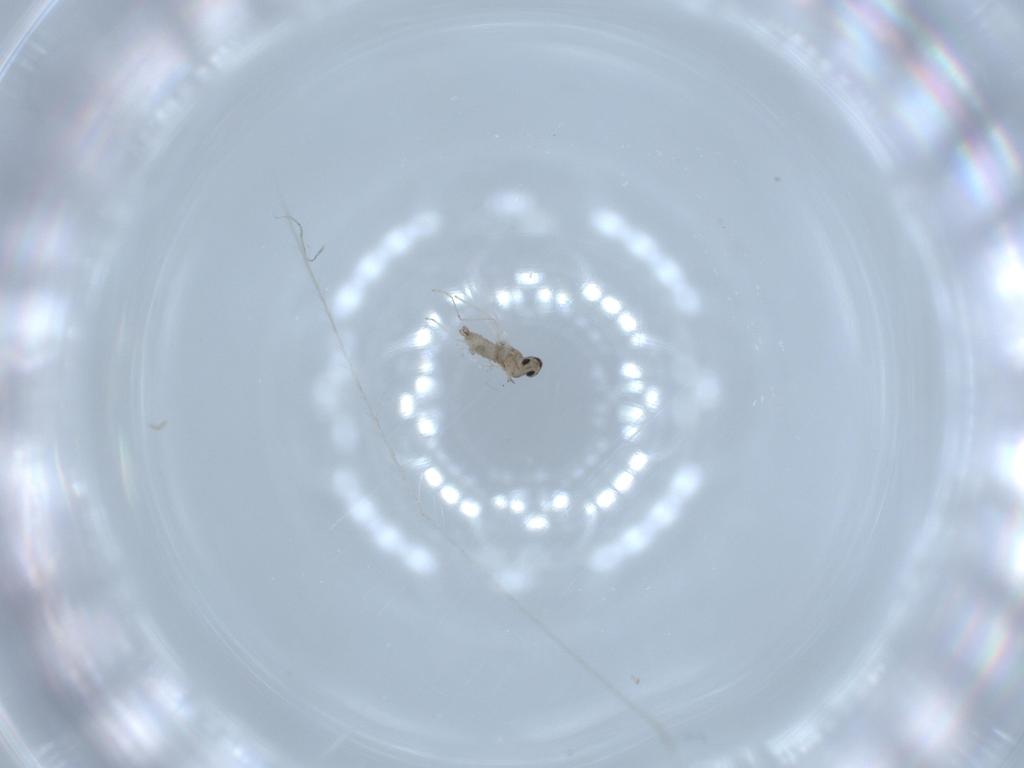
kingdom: Animalia
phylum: Arthropoda
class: Insecta
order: Diptera
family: Cecidomyiidae
